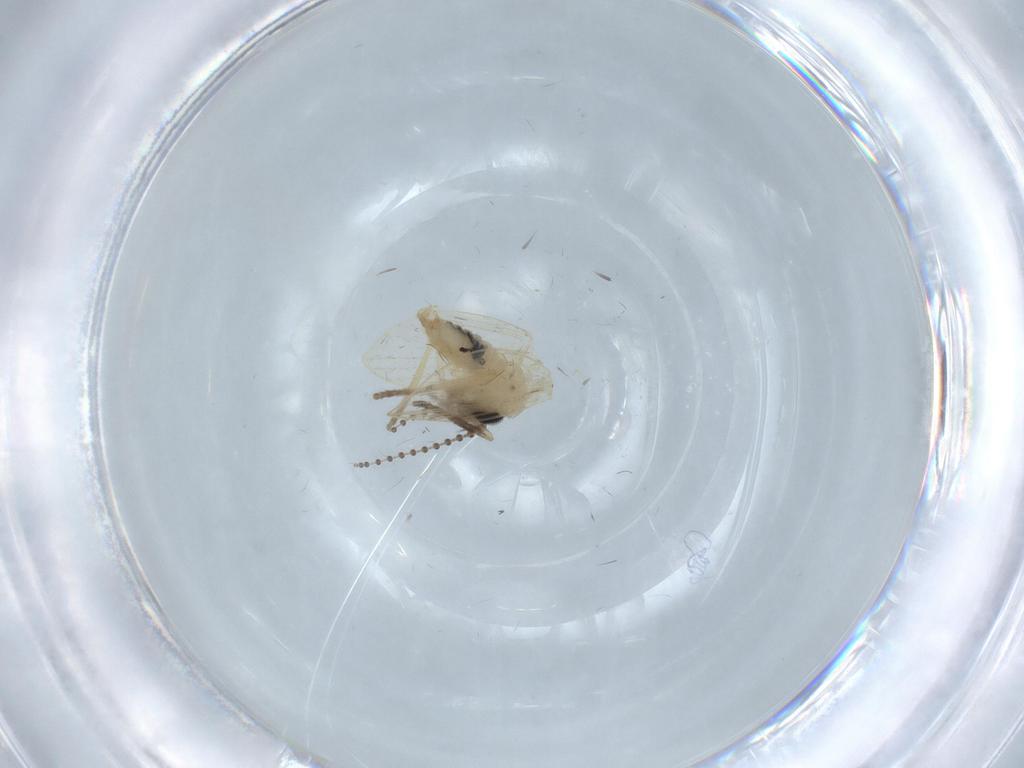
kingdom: Animalia
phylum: Arthropoda
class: Insecta
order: Diptera
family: Psychodidae
